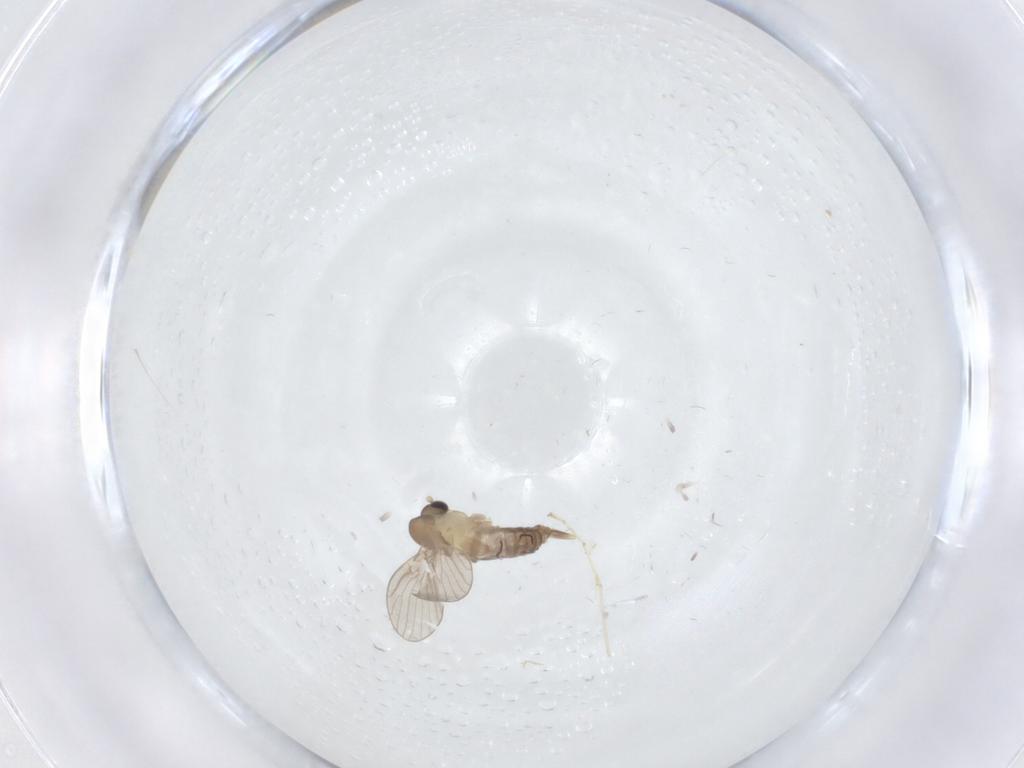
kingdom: Animalia
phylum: Arthropoda
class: Insecta
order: Diptera
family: Cecidomyiidae
